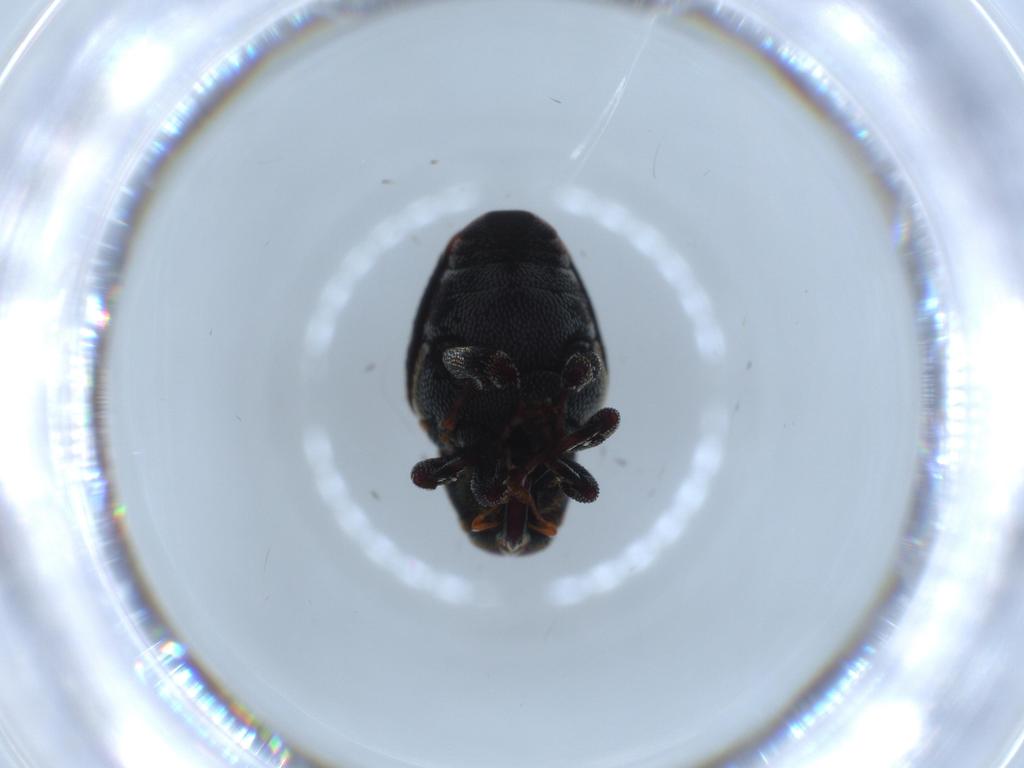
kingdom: Animalia
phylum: Arthropoda
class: Insecta
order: Coleoptera
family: Curculionidae
